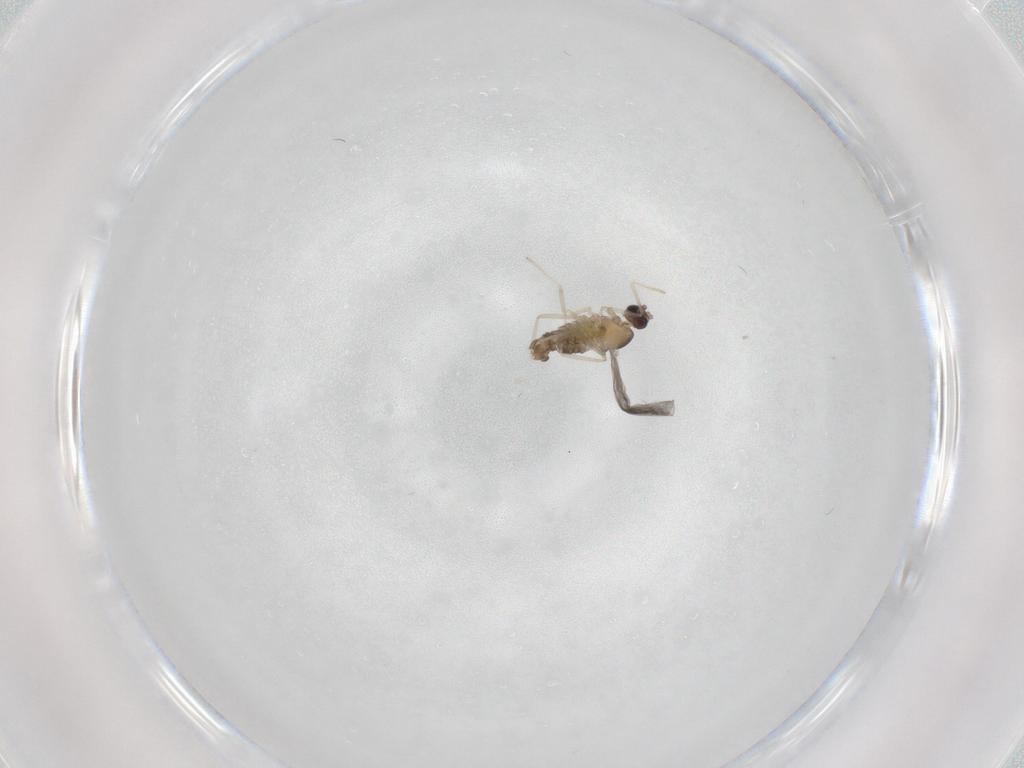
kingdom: Animalia
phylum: Arthropoda
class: Insecta
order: Diptera
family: Cecidomyiidae
